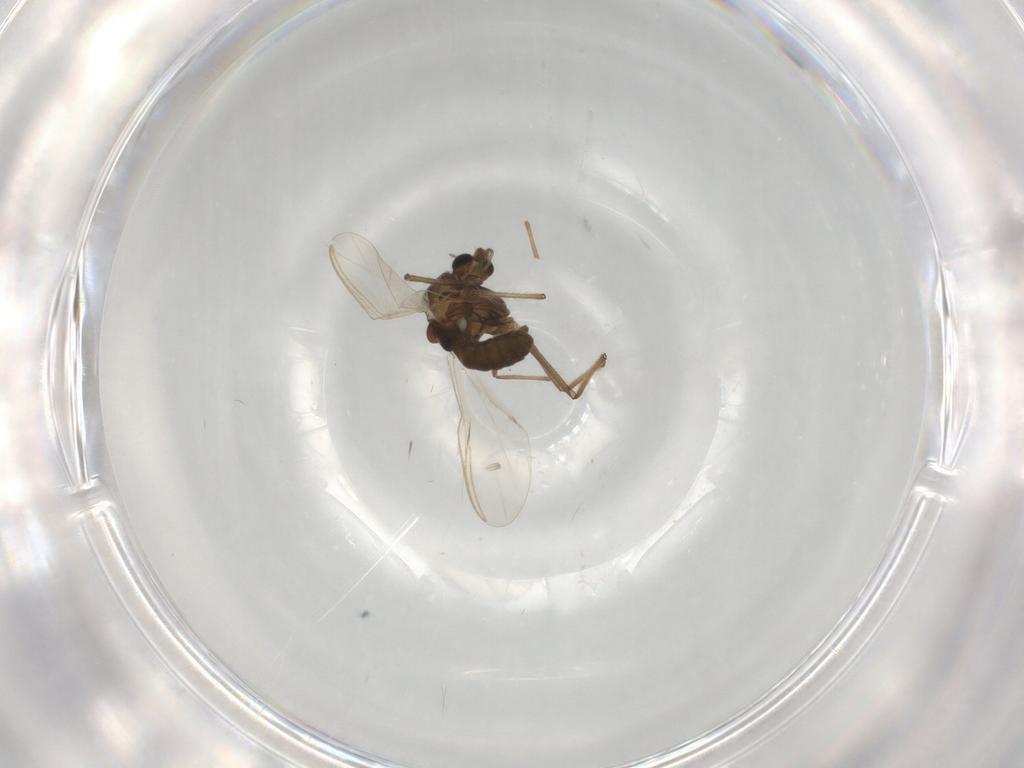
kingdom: Animalia
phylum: Arthropoda
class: Insecta
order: Diptera
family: Chironomidae
